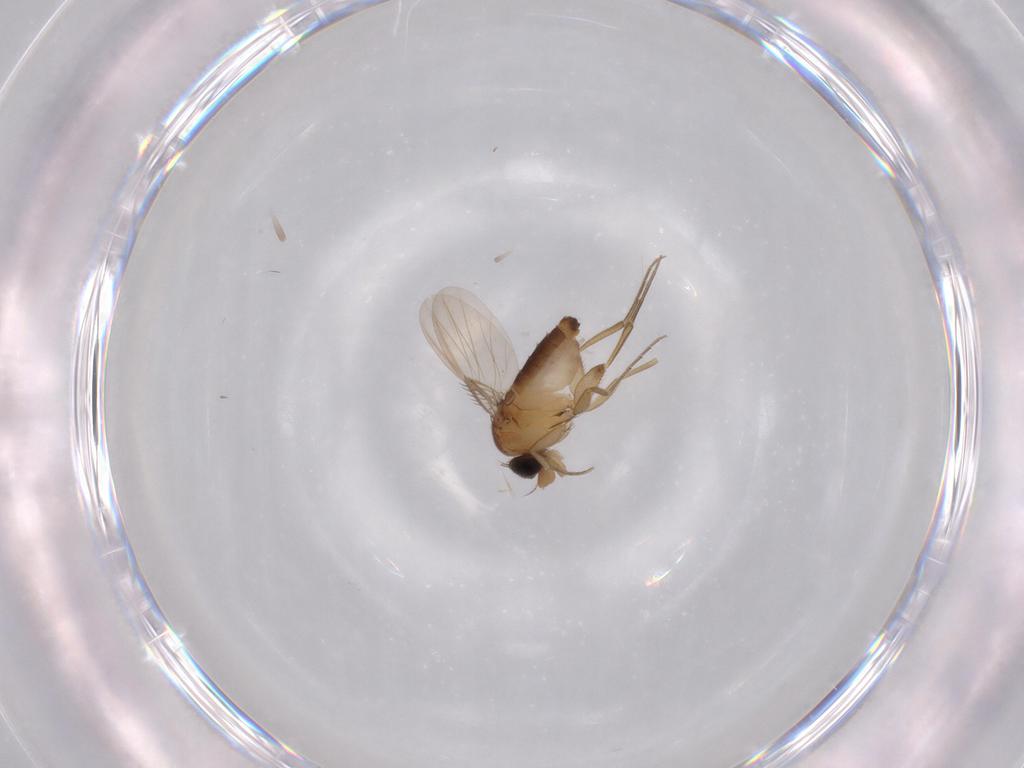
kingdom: Animalia
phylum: Arthropoda
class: Insecta
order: Diptera
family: Phoridae
